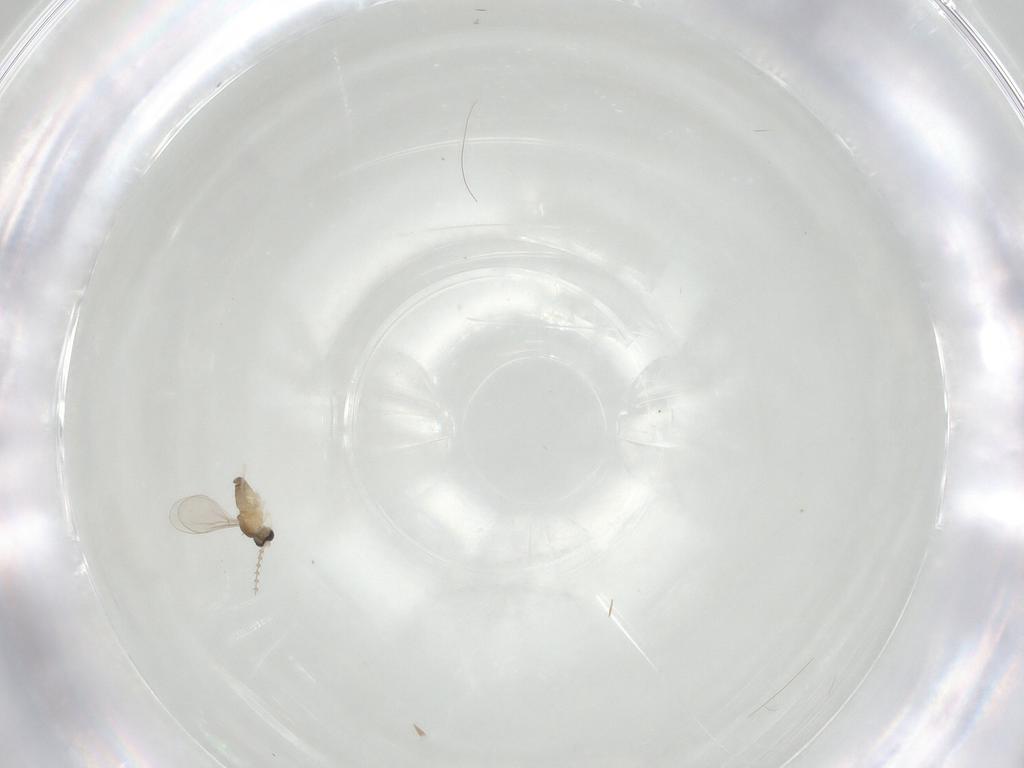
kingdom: Animalia
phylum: Arthropoda
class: Insecta
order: Diptera
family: Cecidomyiidae
